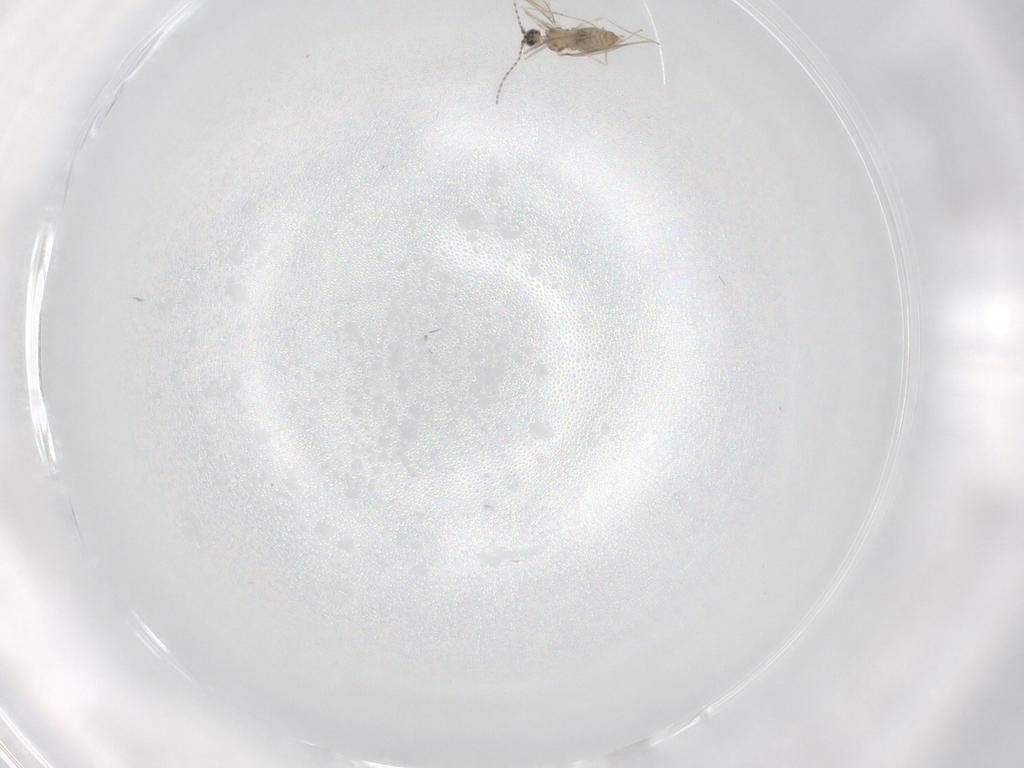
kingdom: Animalia
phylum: Arthropoda
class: Insecta
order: Diptera
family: Cecidomyiidae
